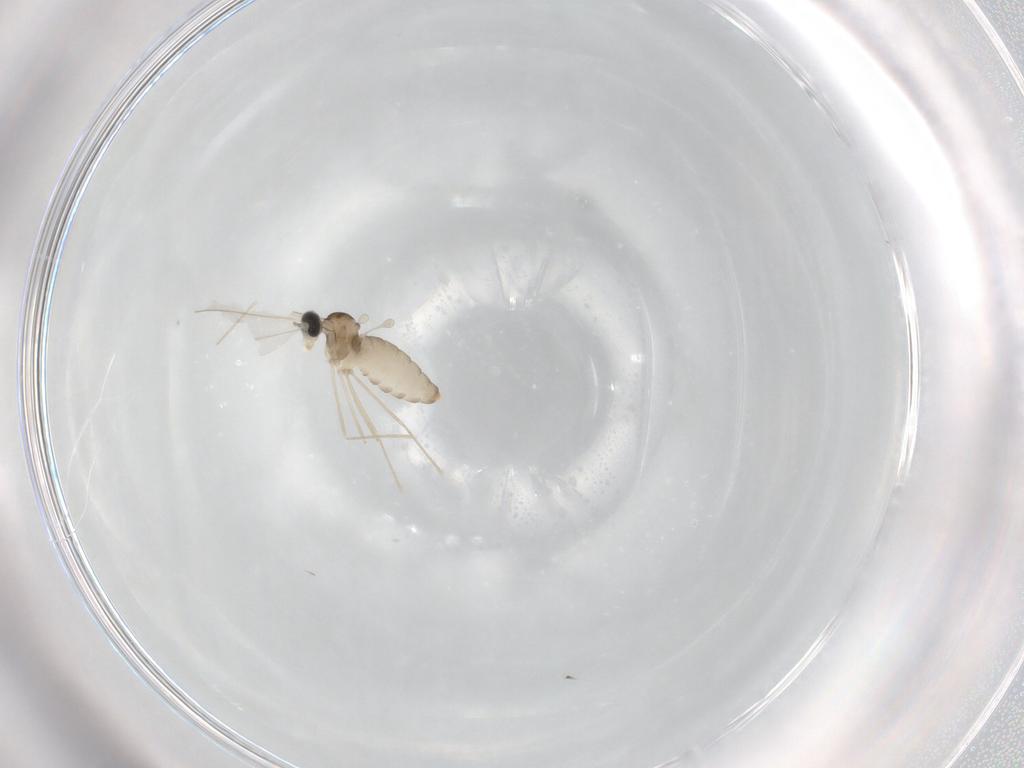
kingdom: Animalia
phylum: Arthropoda
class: Insecta
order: Diptera
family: Cecidomyiidae
